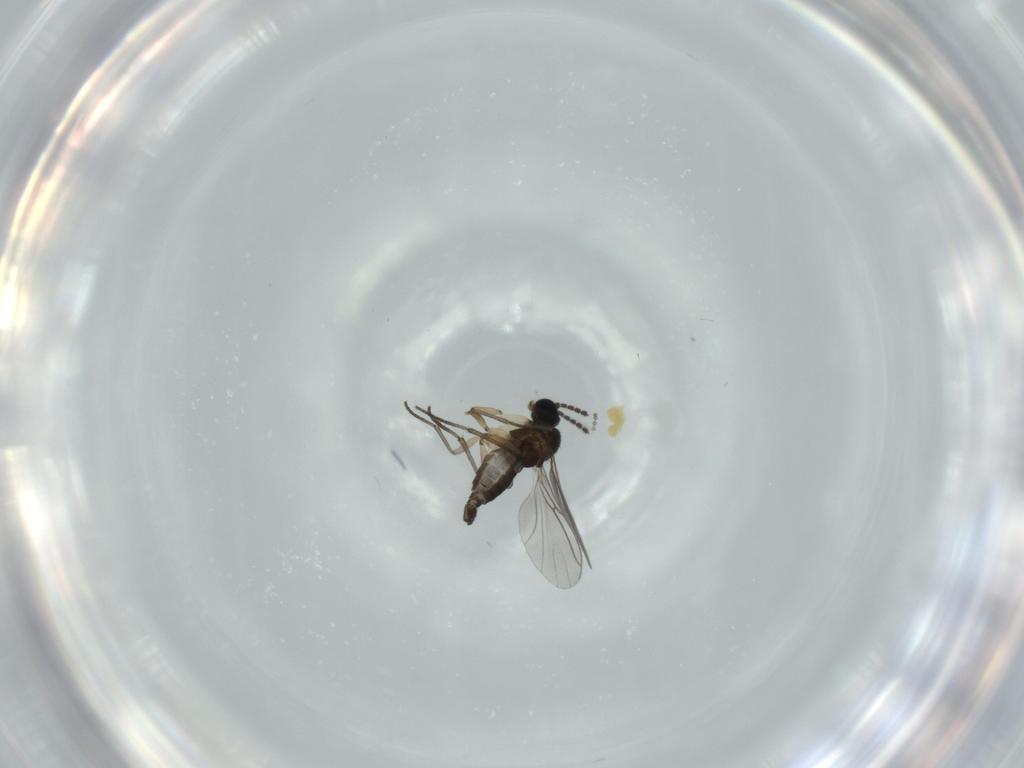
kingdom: Animalia
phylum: Arthropoda
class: Insecta
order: Diptera
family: Sciaridae
